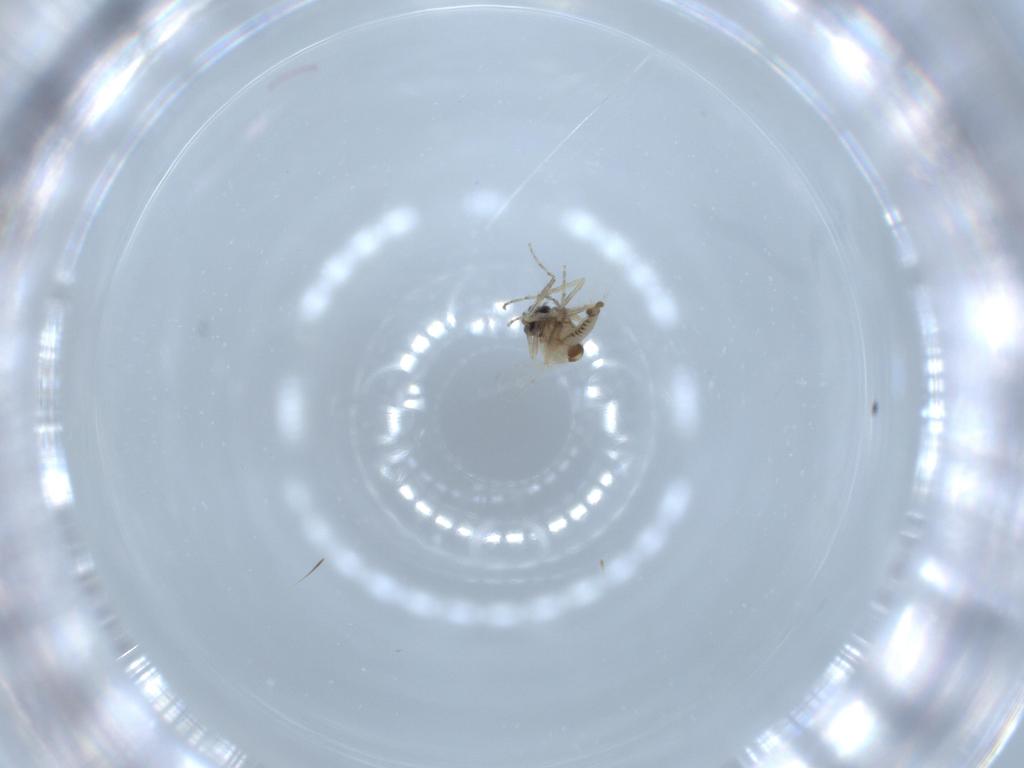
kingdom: Animalia
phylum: Arthropoda
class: Insecta
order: Diptera
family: Ceratopogonidae
